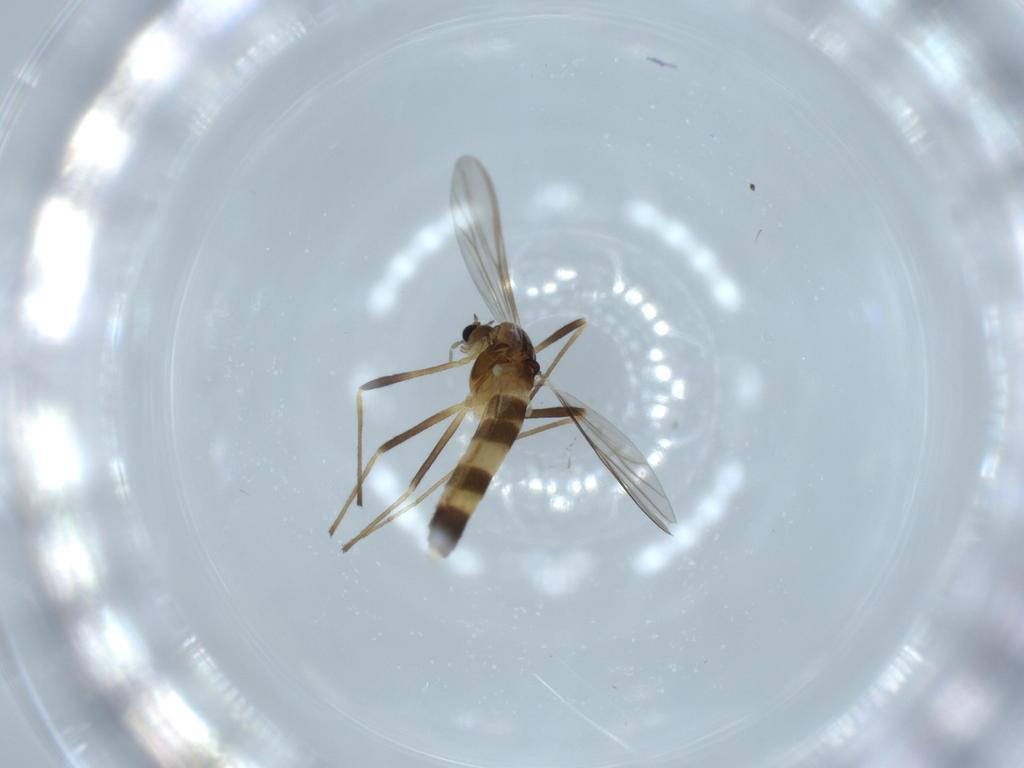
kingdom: Animalia
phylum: Arthropoda
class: Insecta
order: Diptera
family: Chironomidae
